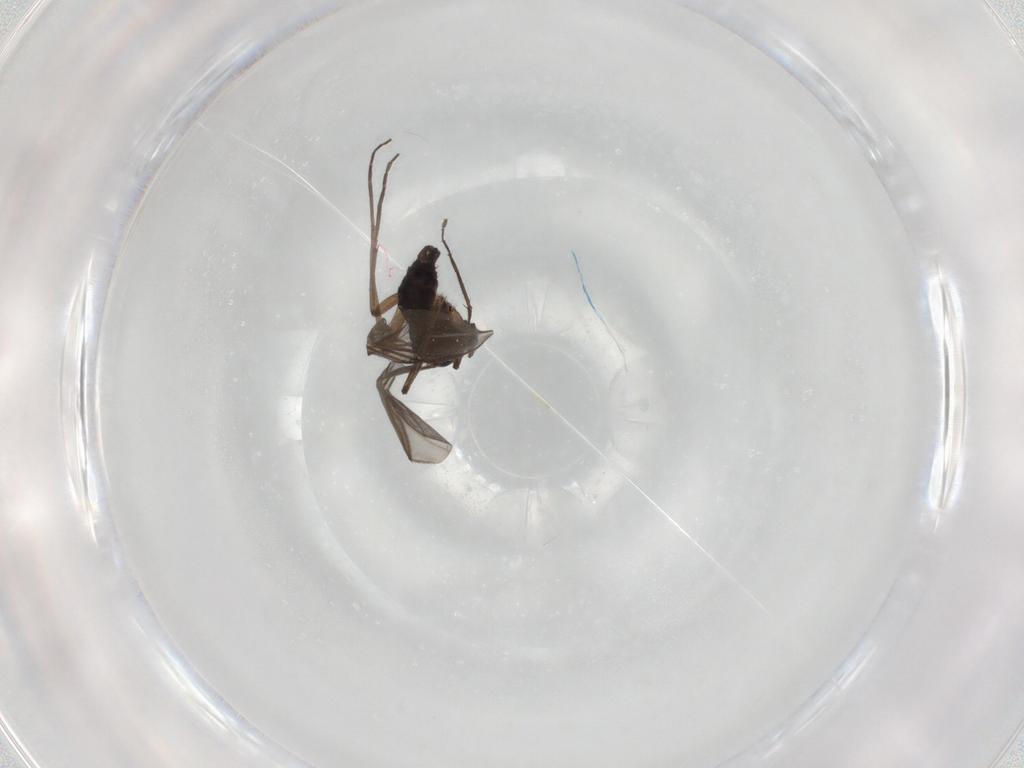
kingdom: Animalia
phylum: Arthropoda
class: Insecta
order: Diptera
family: Sciaridae
